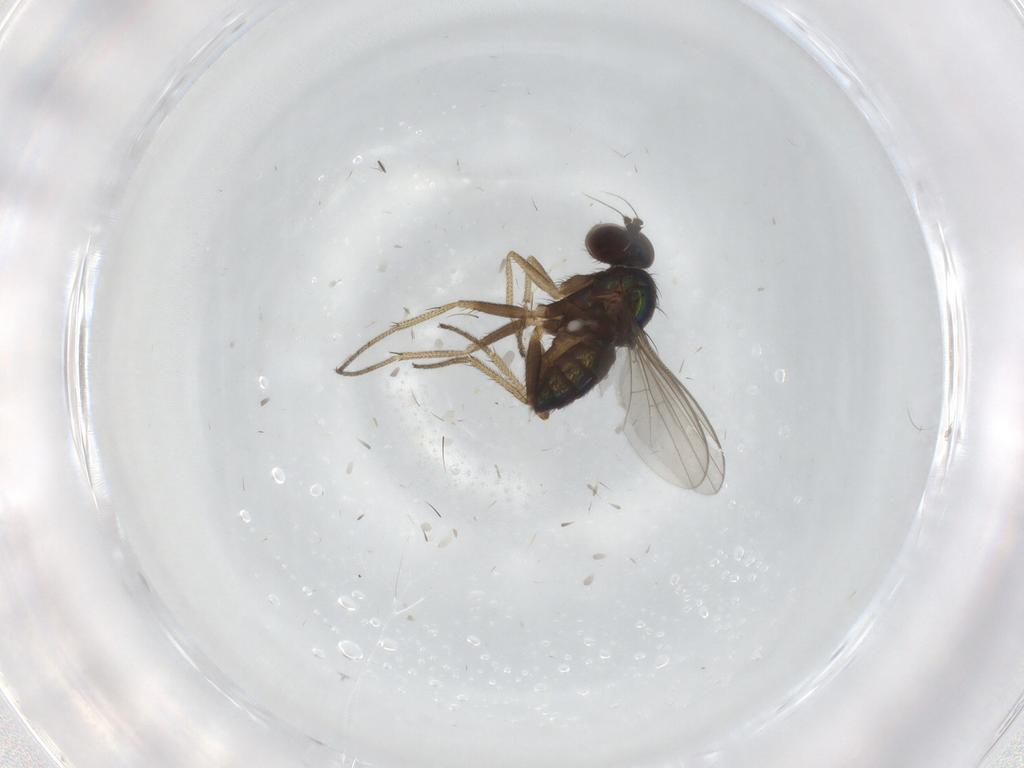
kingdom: Animalia
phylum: Arthropoda
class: Insecta
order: Diptera
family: Cecidomyiidae
